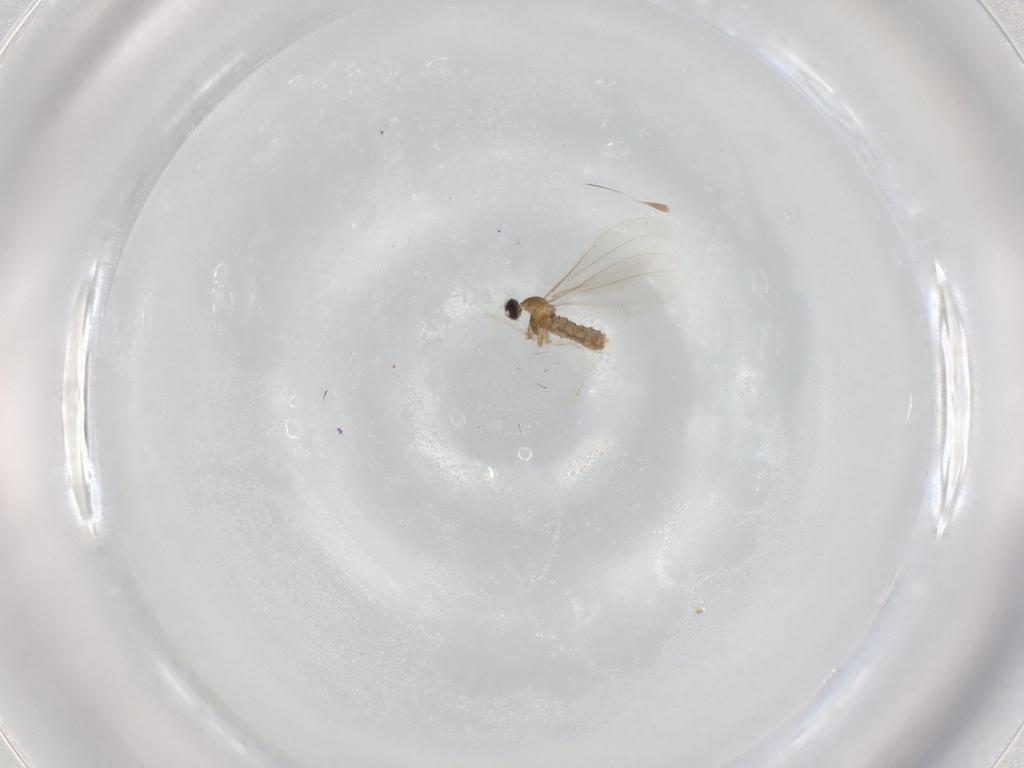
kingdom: Animalia
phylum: Arthropoda
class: Insecta
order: Diptera
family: Cecidomyiidae
